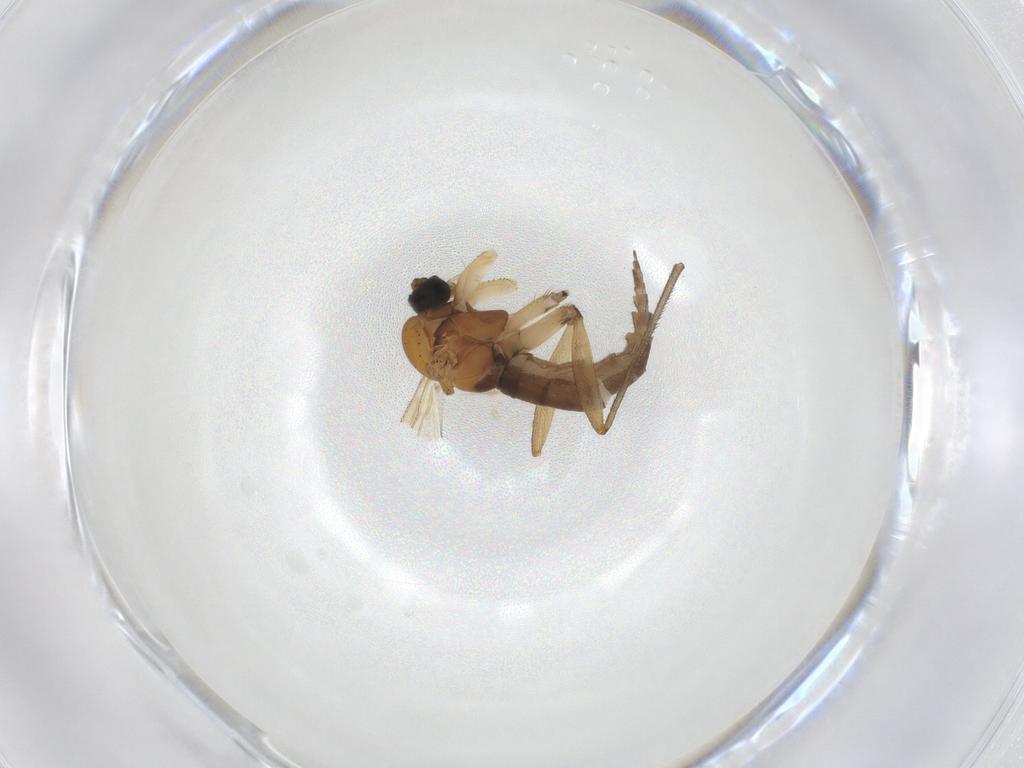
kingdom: Animalia
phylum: Arthropoda
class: Insecta
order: Diptera
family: Sciaridae
